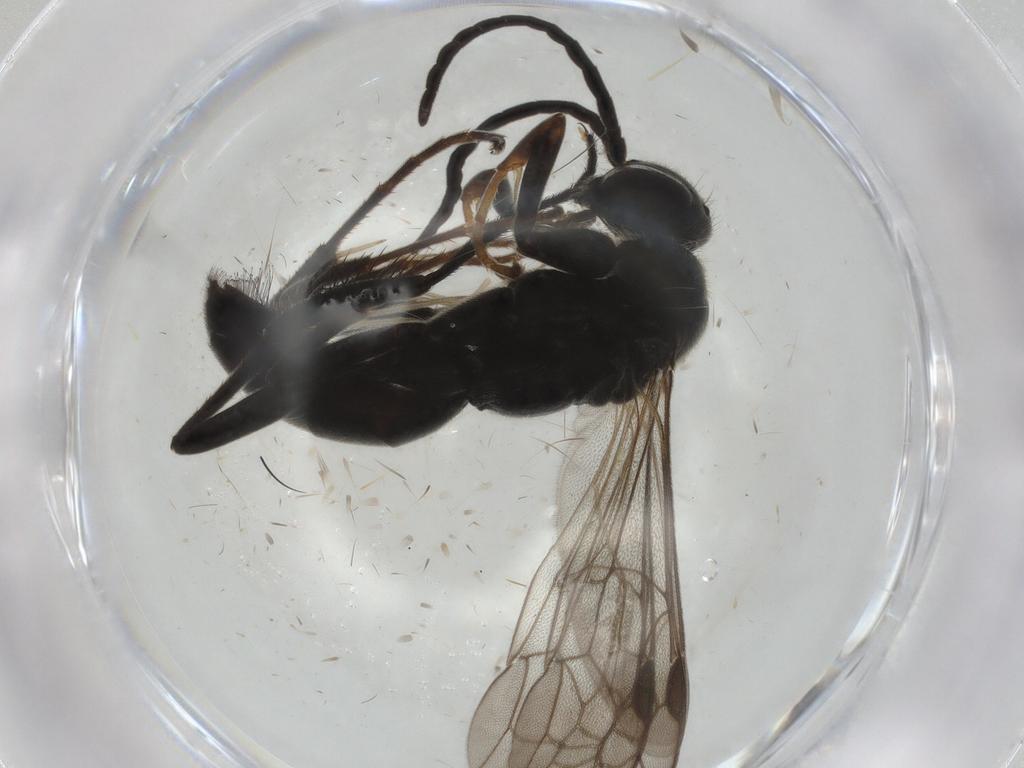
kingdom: Animalia
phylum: Arthropoda
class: Insecta
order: Hymenoptera
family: Pompilidae
